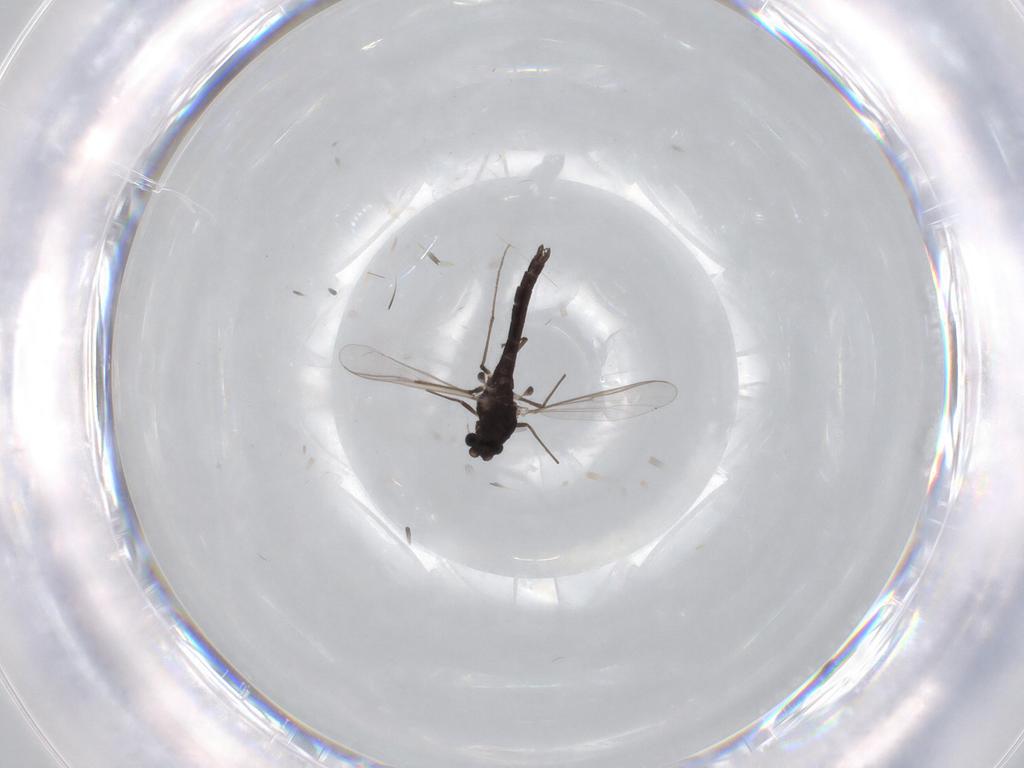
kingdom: Animalia
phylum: Arthropoda
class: Insecta
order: Diptera
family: Chironomidae
